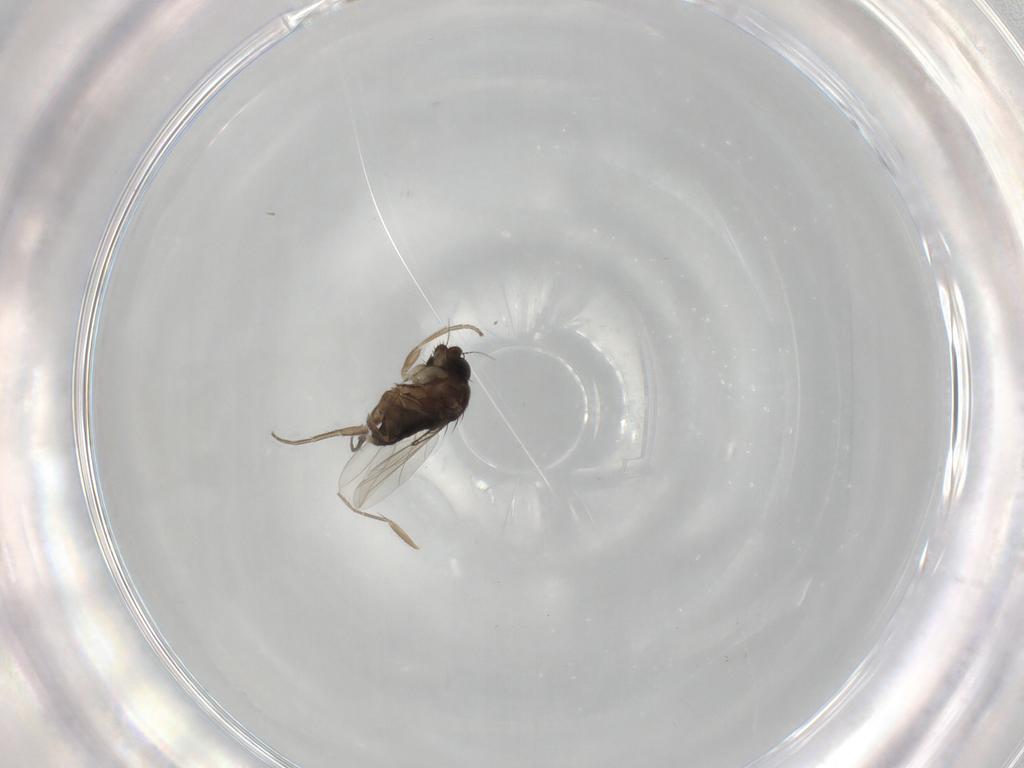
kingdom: Animalia
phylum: Arthropoda
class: Insecta
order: Diptera
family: Phoridae
